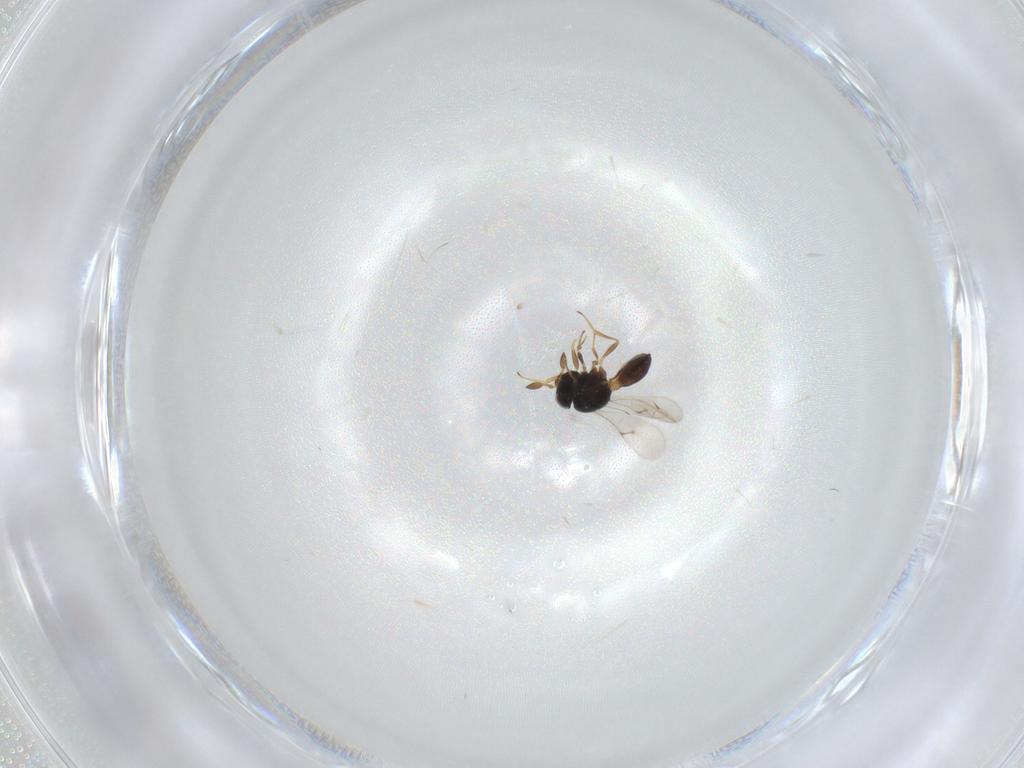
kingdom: Animalia
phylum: Arthropoda
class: Insecta
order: Hymenoptera
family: Scelionidae
